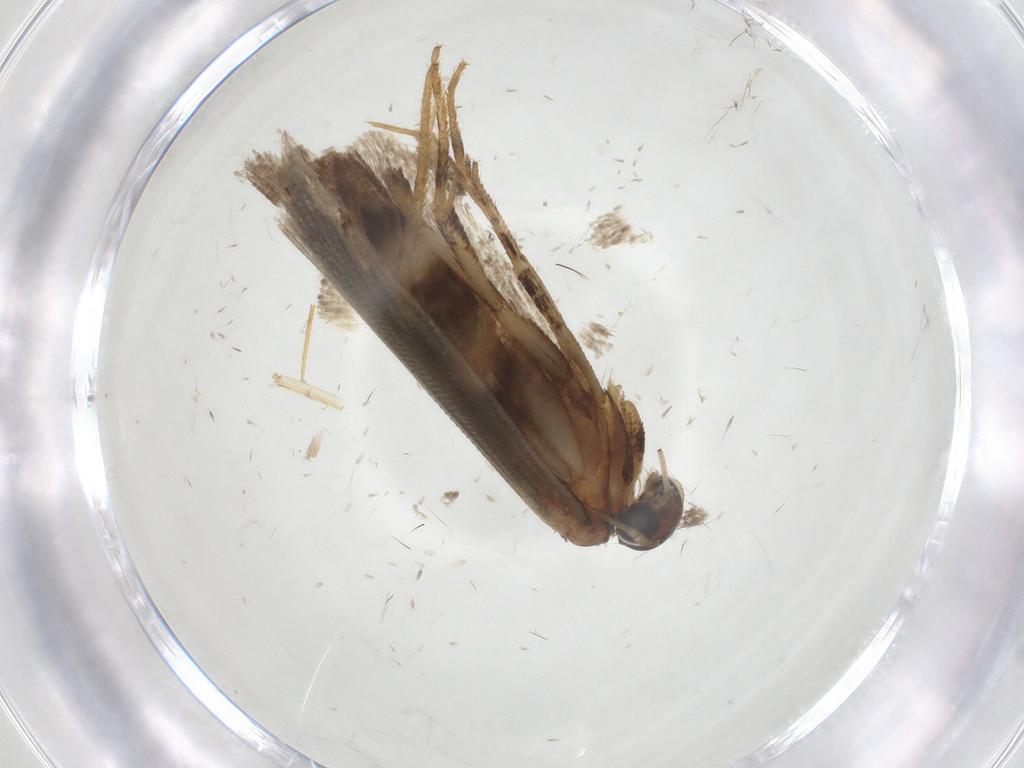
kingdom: Animalia
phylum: Arthropoda
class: Insecta
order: Lepidoptera
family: Gelechiidae
